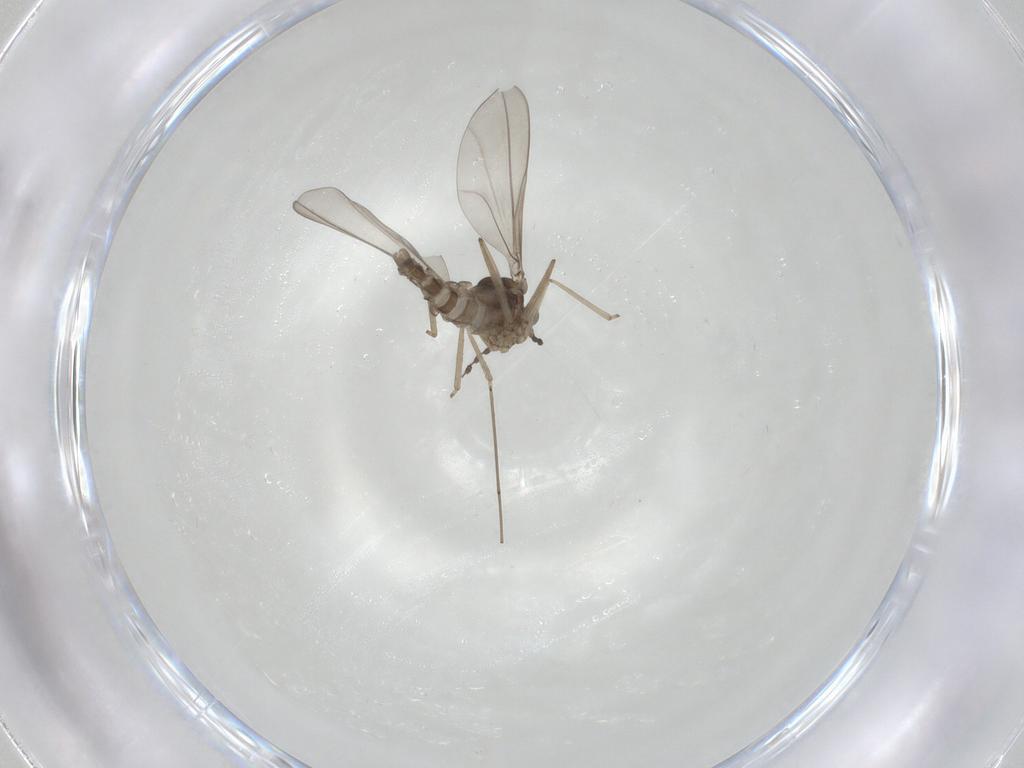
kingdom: Animalia
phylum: Arthropoda
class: Insecta
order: Diptera
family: Cecidomyiidae
